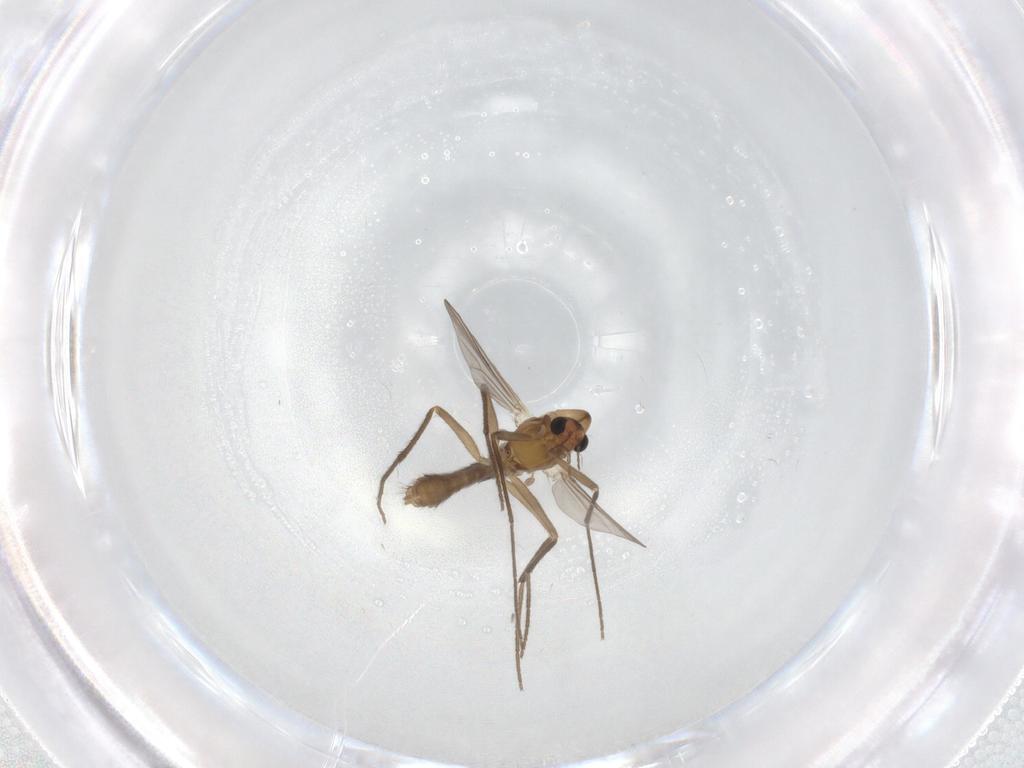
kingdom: Animalia
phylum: Arthropoda
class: Insecta
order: Diptera
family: Chironomidae
